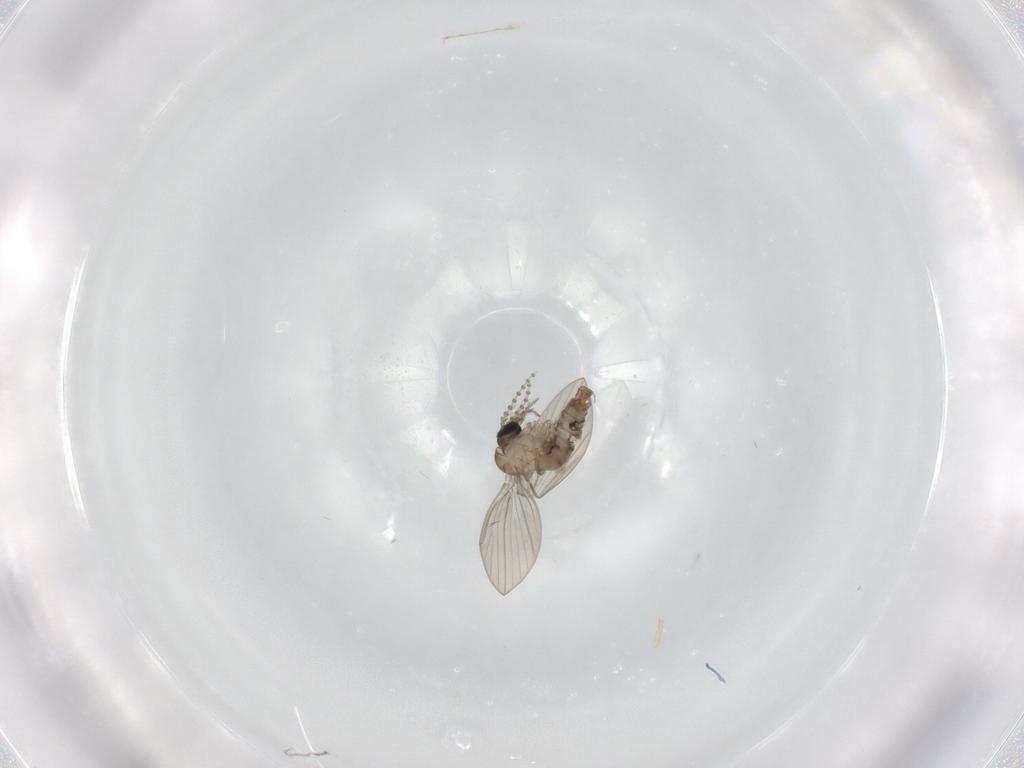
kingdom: Animalia
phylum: Arthropoda
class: Insecta
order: Diptera
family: Psychodidae
